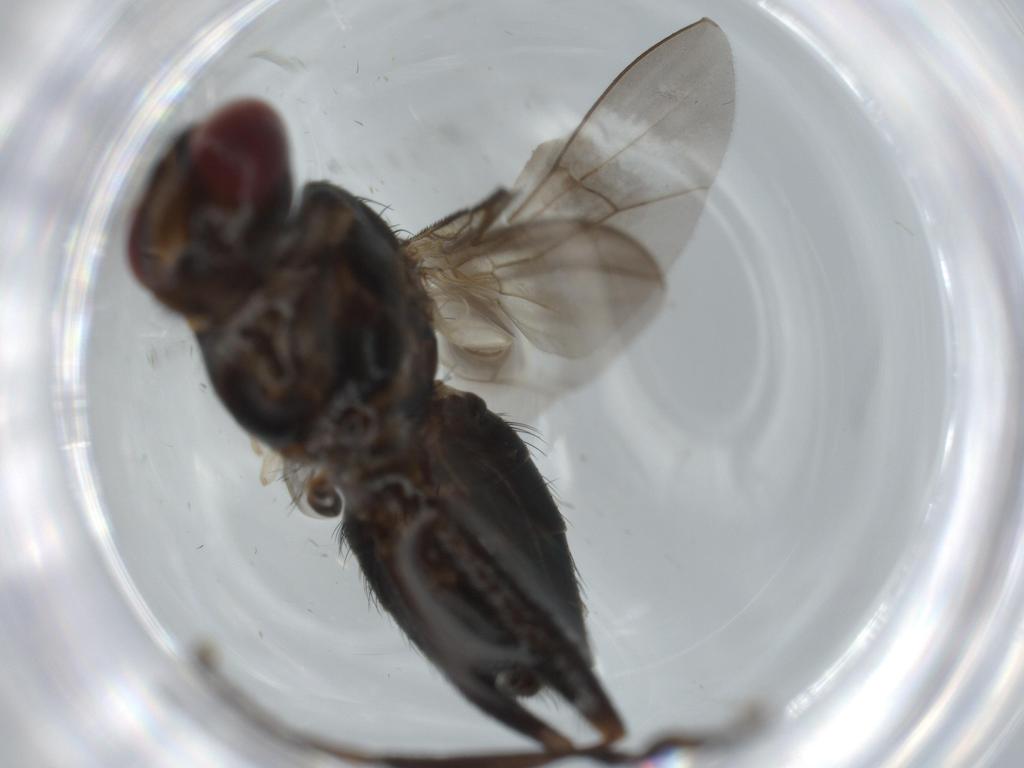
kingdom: Animalia
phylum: Arthropoda
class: Insecta
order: Diptera
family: Calliphoridae
